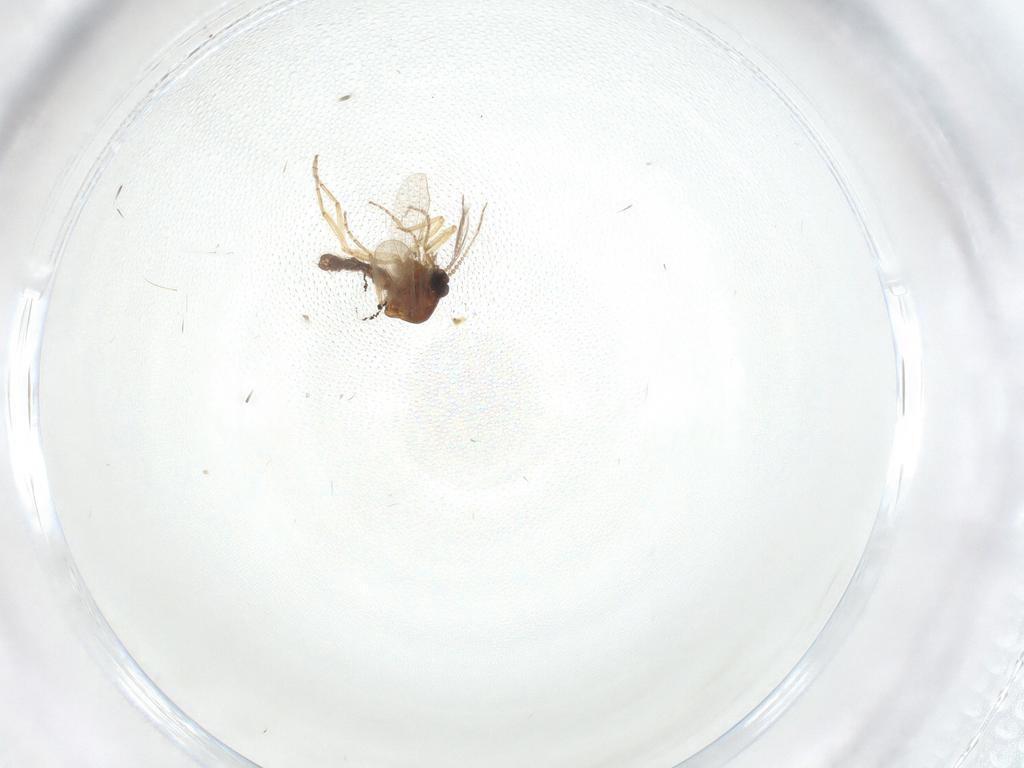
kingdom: Animalia
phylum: Arthropoda
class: Insecta
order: Diptera
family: Ceratopogonidae
